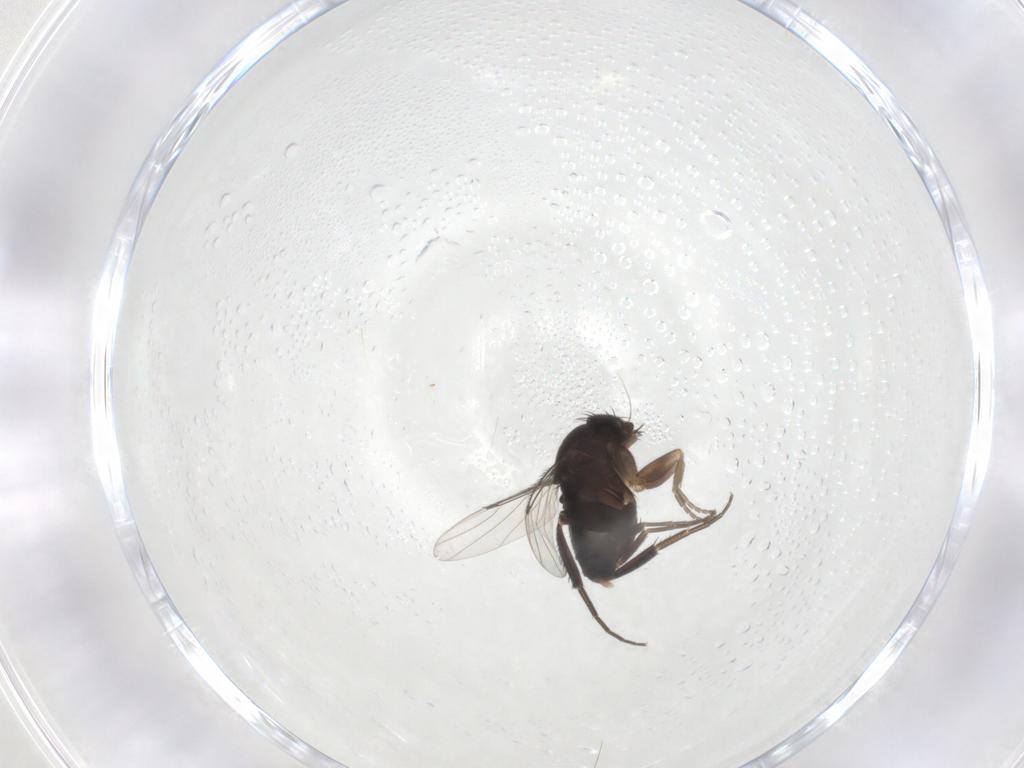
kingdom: Animalia
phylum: Arthropoda
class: Insecta
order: Diptera
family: Phoridae
